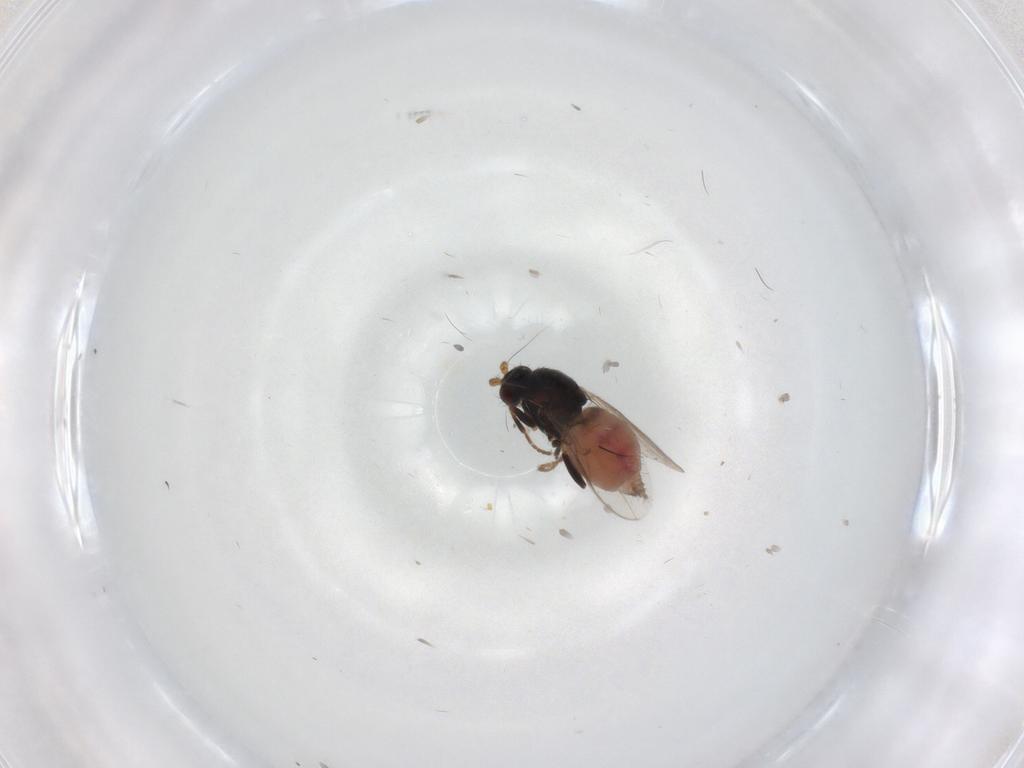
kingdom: Animalia
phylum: Arthropoda
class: Insecta
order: Diptera
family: Sphaeroceridae
